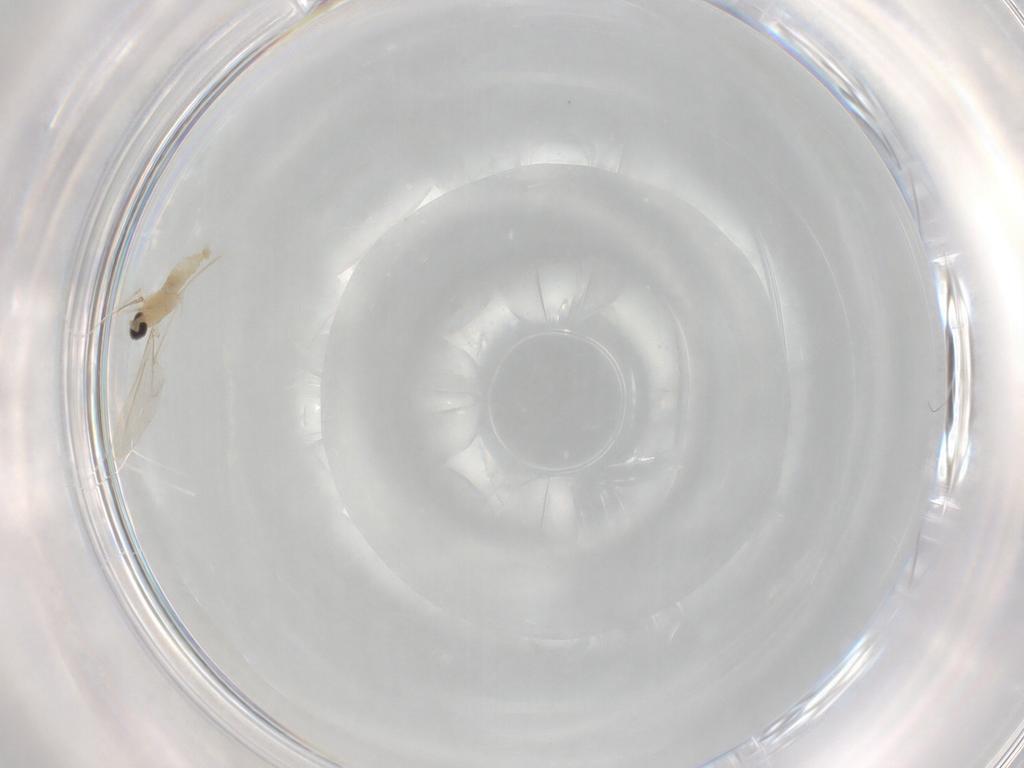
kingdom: Animalia
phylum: Arthropoda
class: Insecta
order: Diptera
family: Cecidomyiidae
